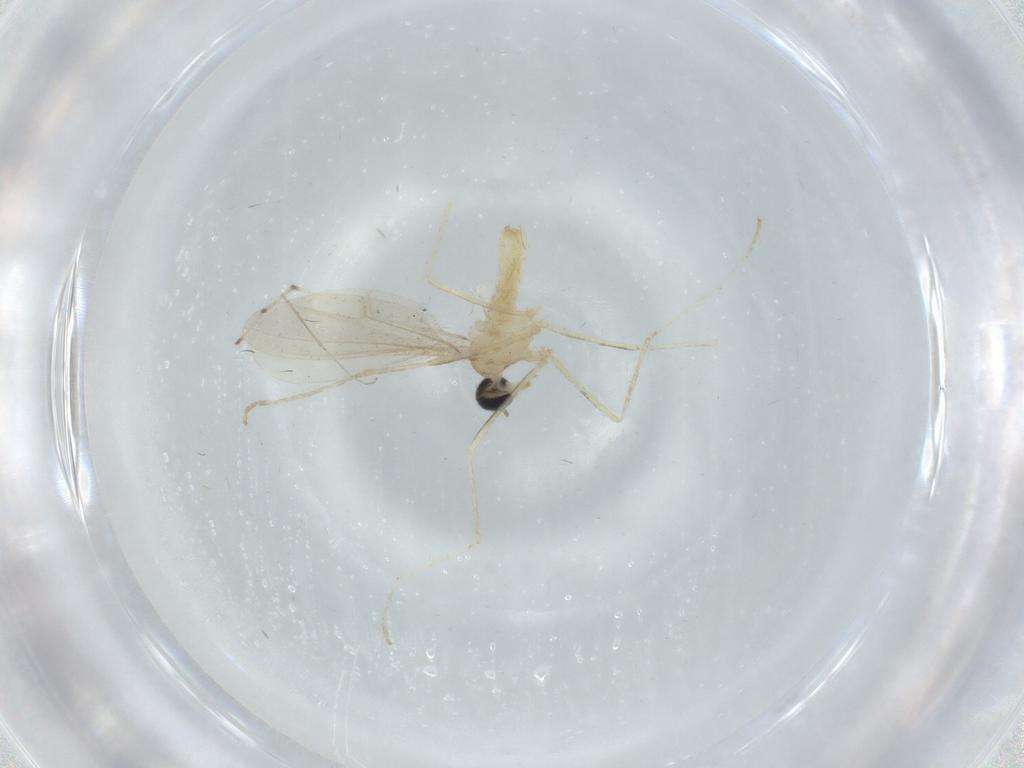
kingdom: Animalia
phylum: Arthropoda
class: Insecta
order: Diptera
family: Cecidomyiidae
